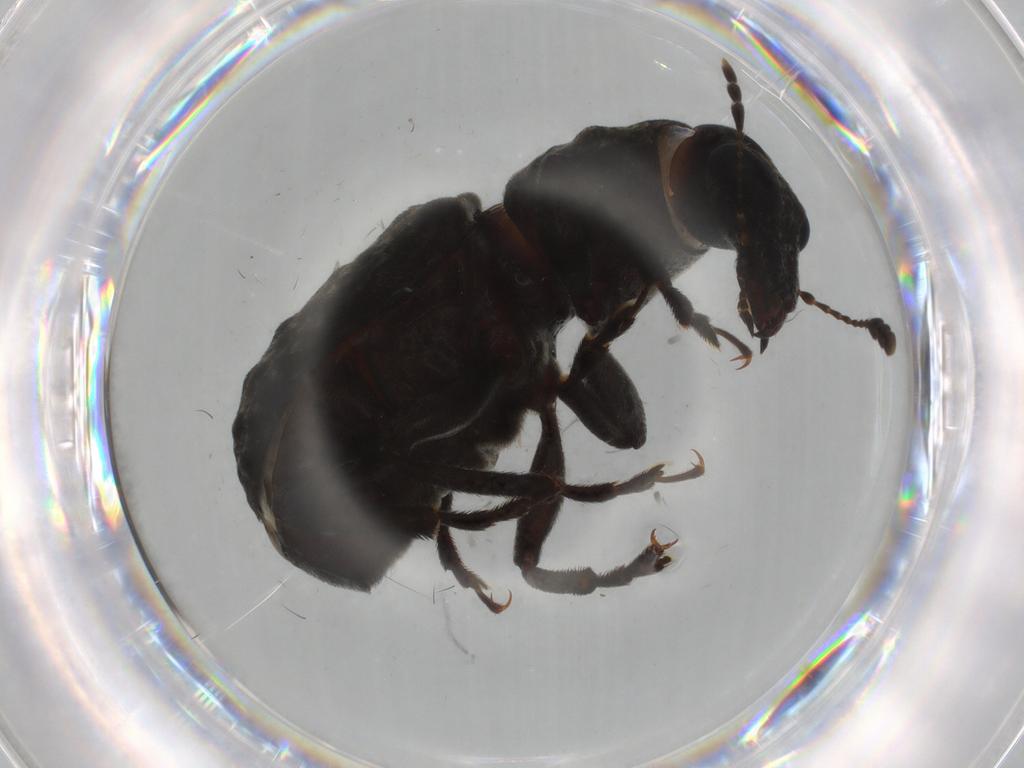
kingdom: Animalia
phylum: Arthropoda
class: Insecta
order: Coleoptera
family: Anthribidae
